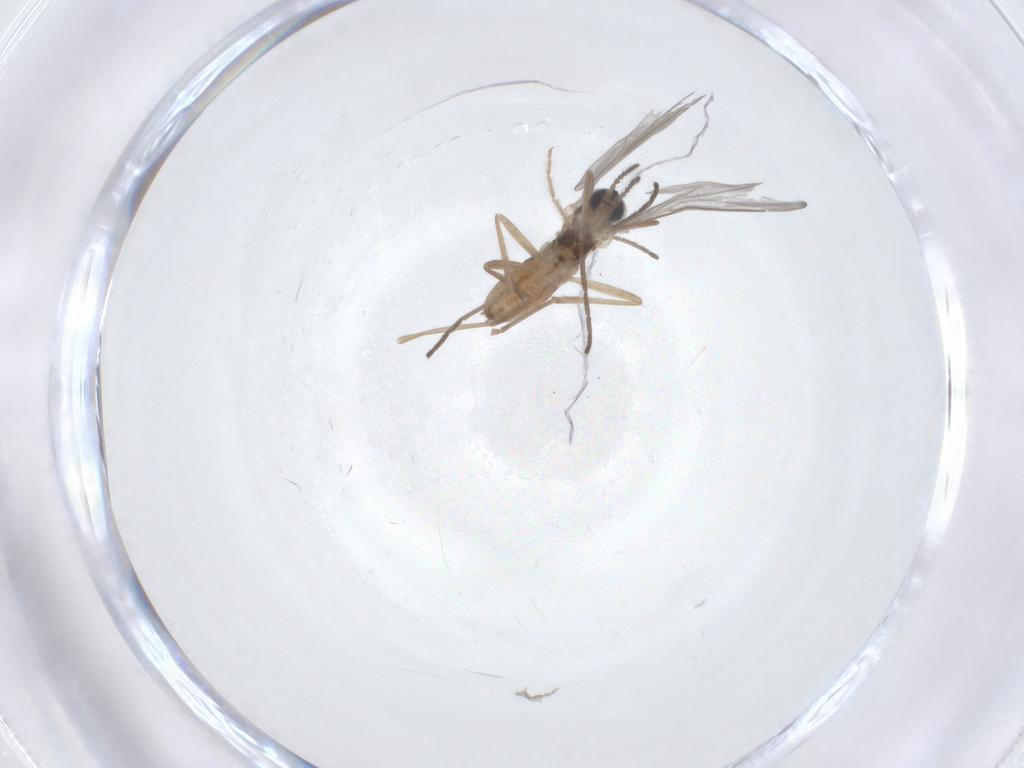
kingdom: Animalia
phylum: Arthropoda
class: Insecta
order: Diptera
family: Cecidomyiidae
